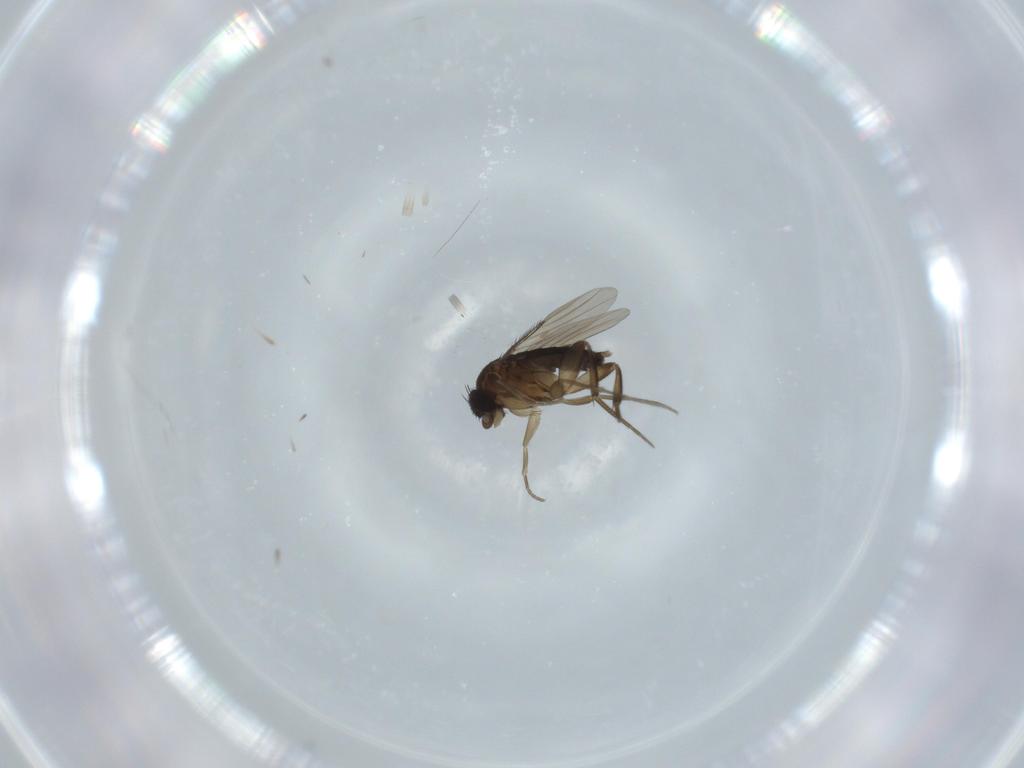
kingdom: Animalia
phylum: Arthropoda
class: Insecta
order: Diptera
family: Phoridae
